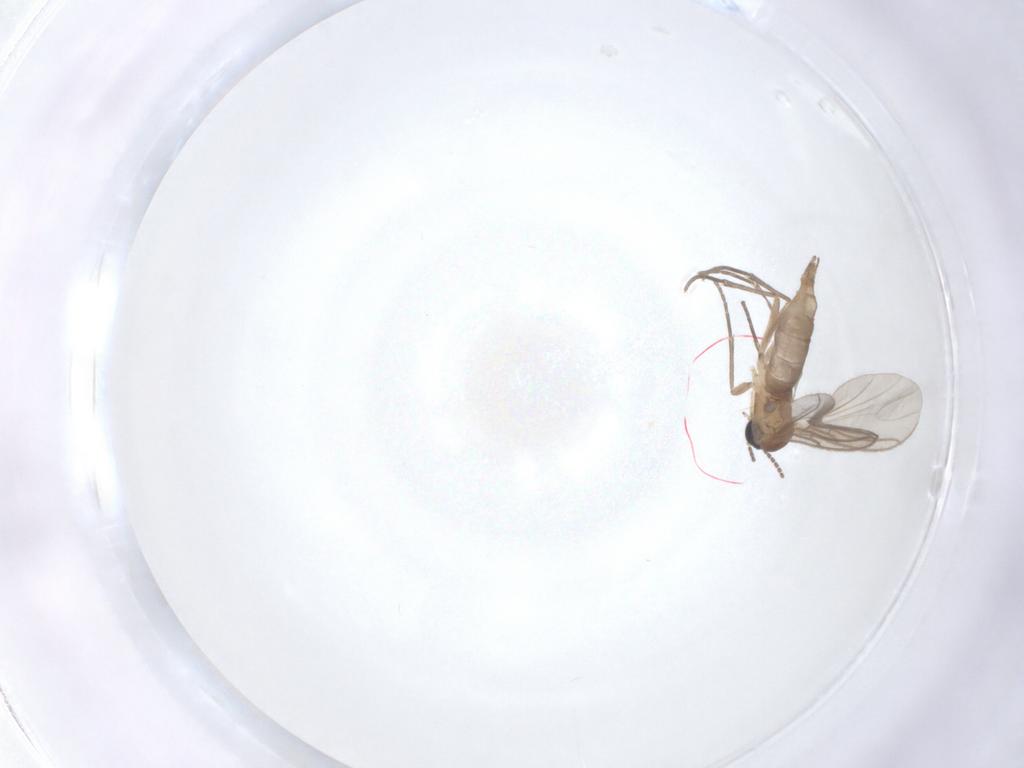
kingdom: Animalia
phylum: Arthropoda
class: Insecta
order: Diptera
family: Sciaridae
